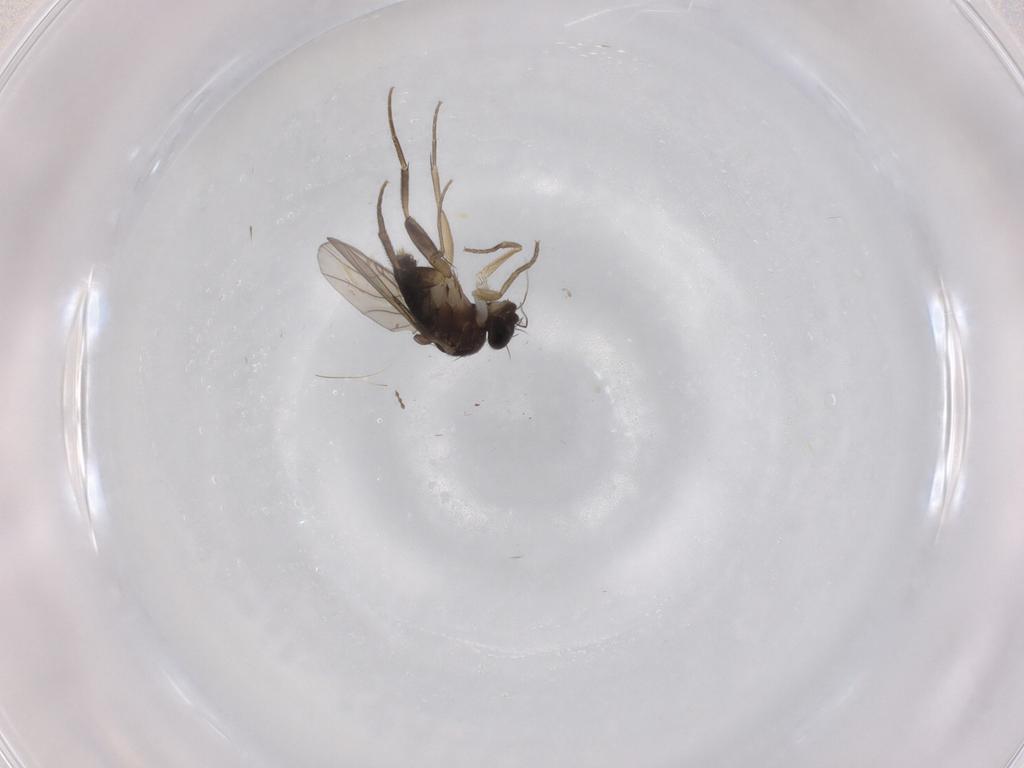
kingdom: Animalia
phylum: Arthropoda
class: Insecta
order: Diptera
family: Phoridae
